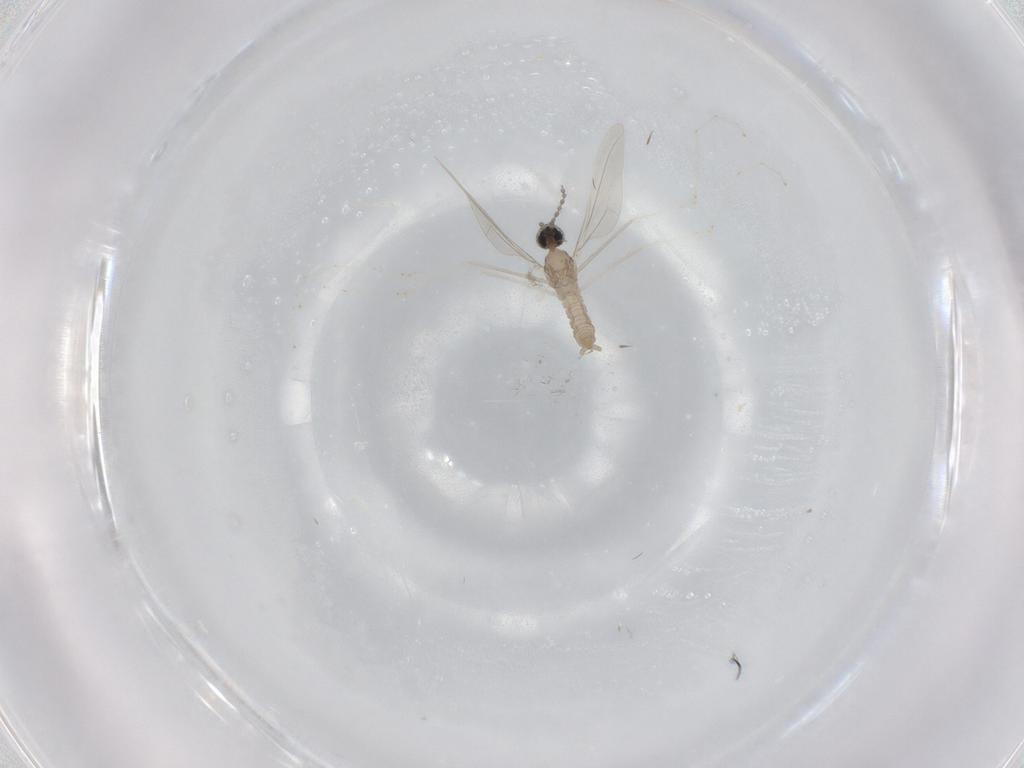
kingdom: Animalia
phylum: Arthropoda
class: Insecta
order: Diptera
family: Cecidomyiidae
